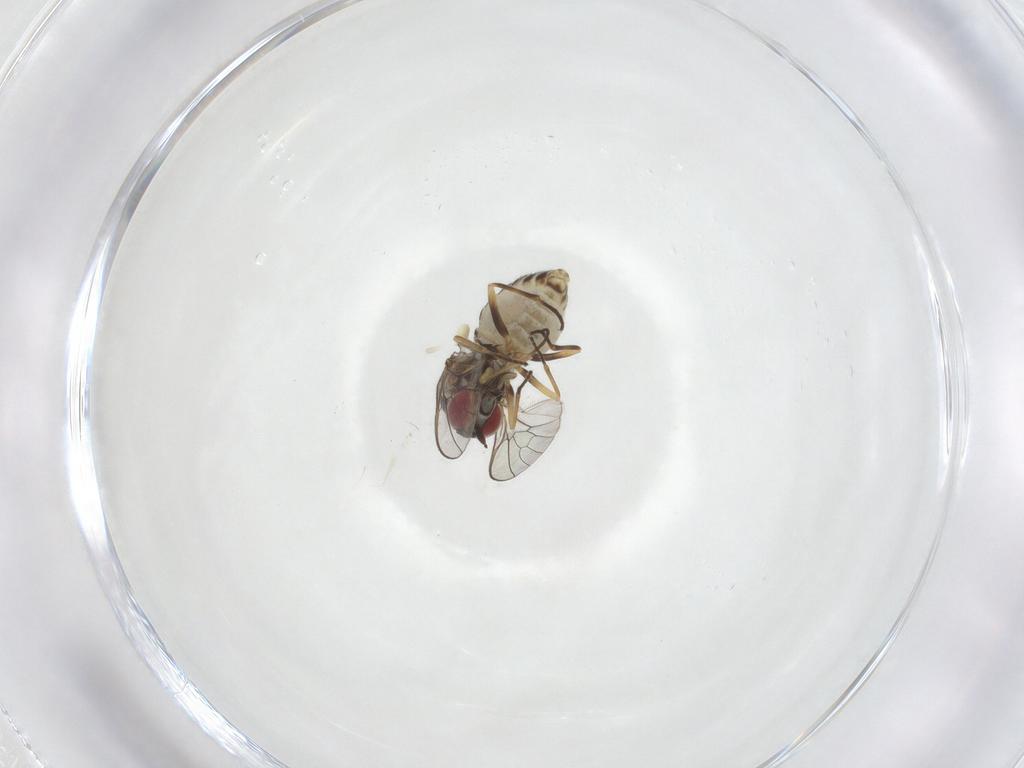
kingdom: Animalia
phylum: Arthropoda
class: Insecta
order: Diptera
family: Bombyliidae
